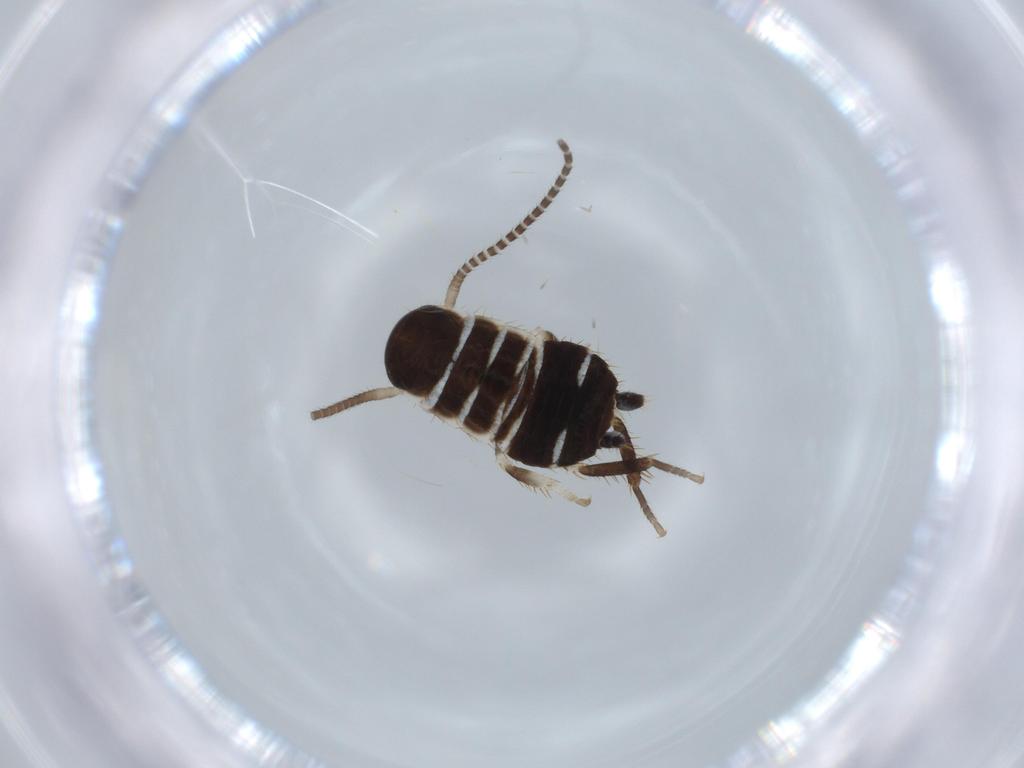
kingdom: Animalia
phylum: Arthropoda
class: Insecta
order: Blattodea
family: Ectobiidae
